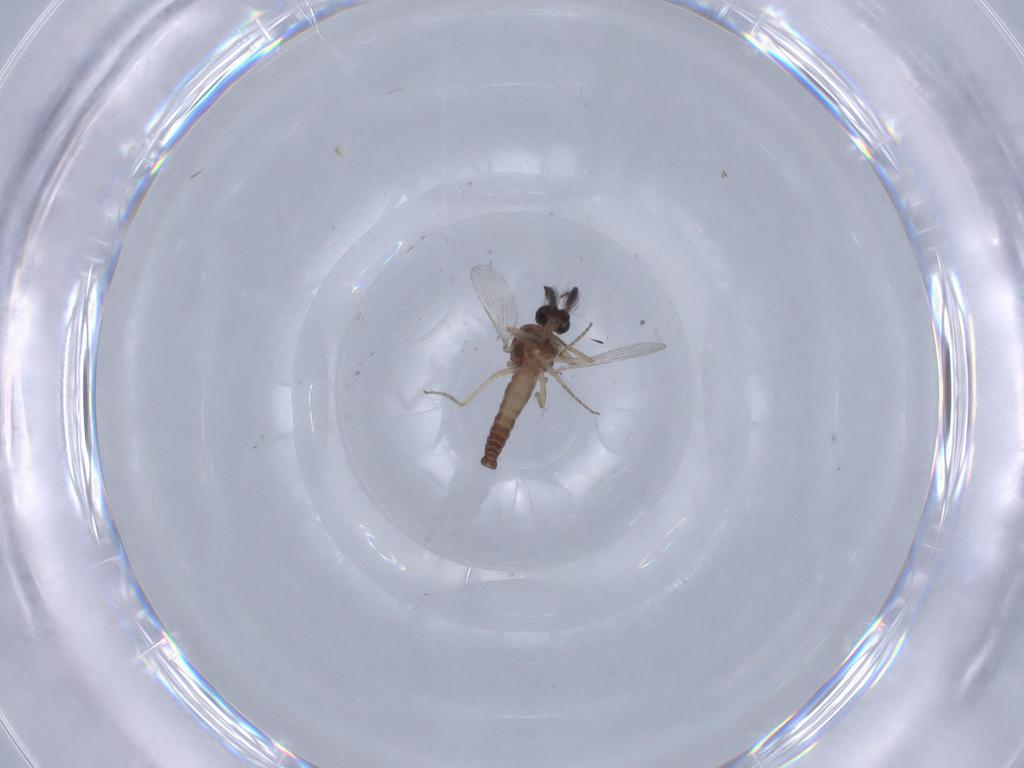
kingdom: Animalia
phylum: Arthropoda
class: Insecta
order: Diptera
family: Ceratopogonidae
